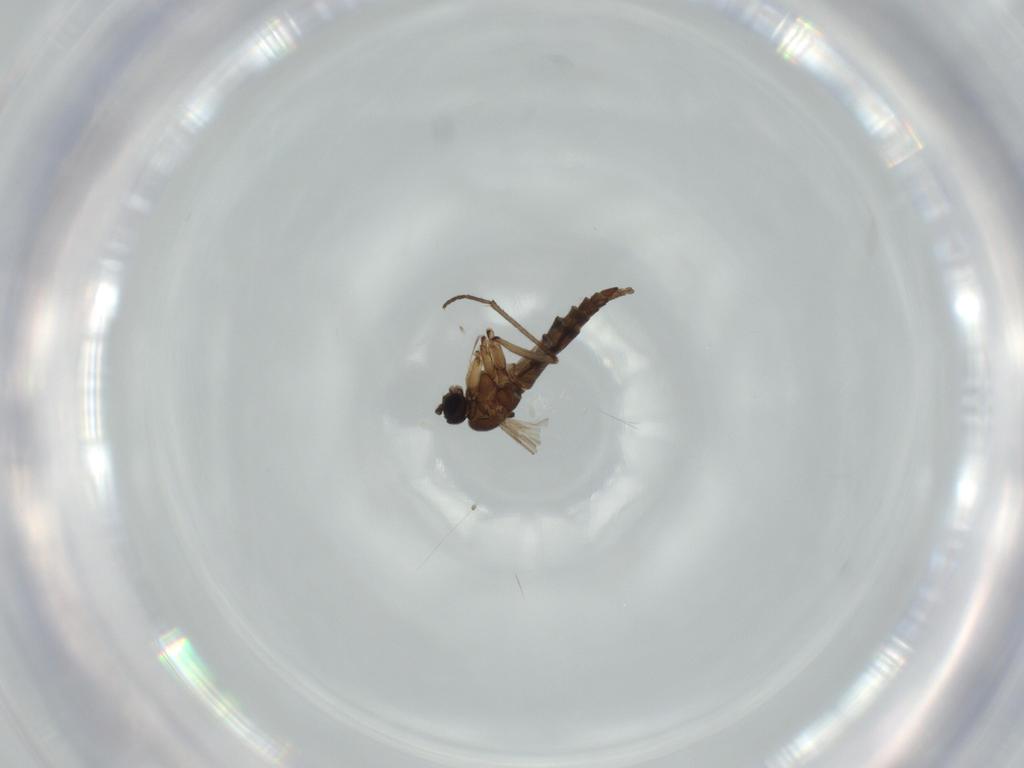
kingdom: Animalia
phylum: Arthropoda
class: Insecta
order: Diptera
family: Sciaridae
